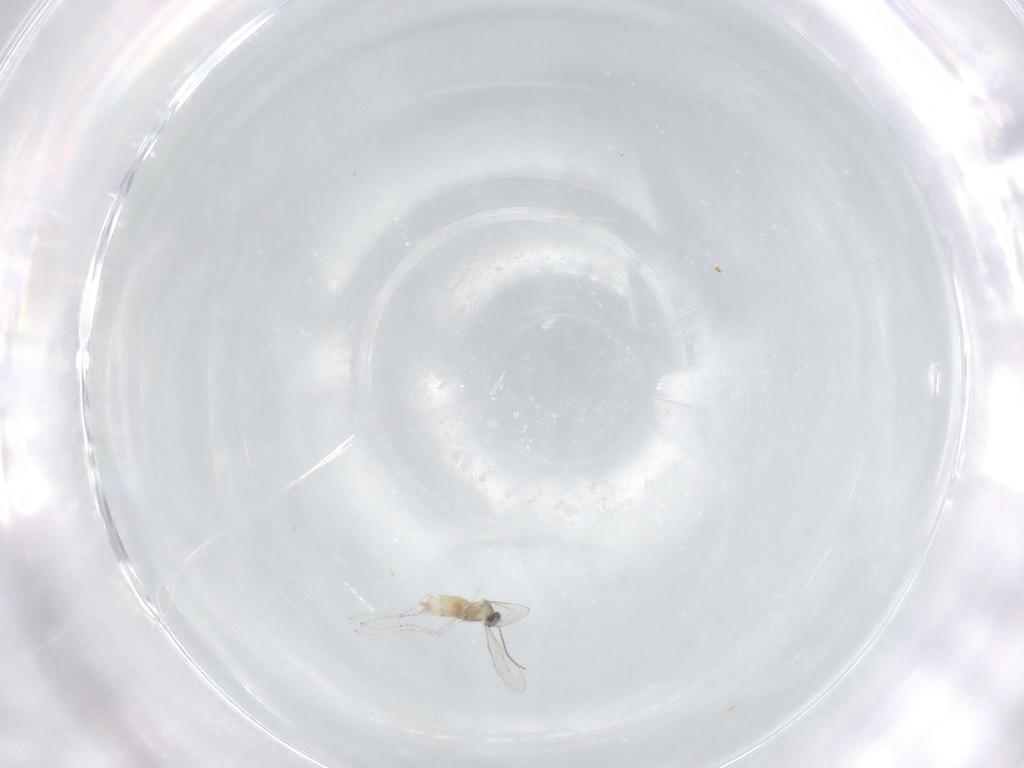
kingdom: Animalia
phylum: Arthropoda
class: Insecta
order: Diptera
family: Cecidomyiidae
